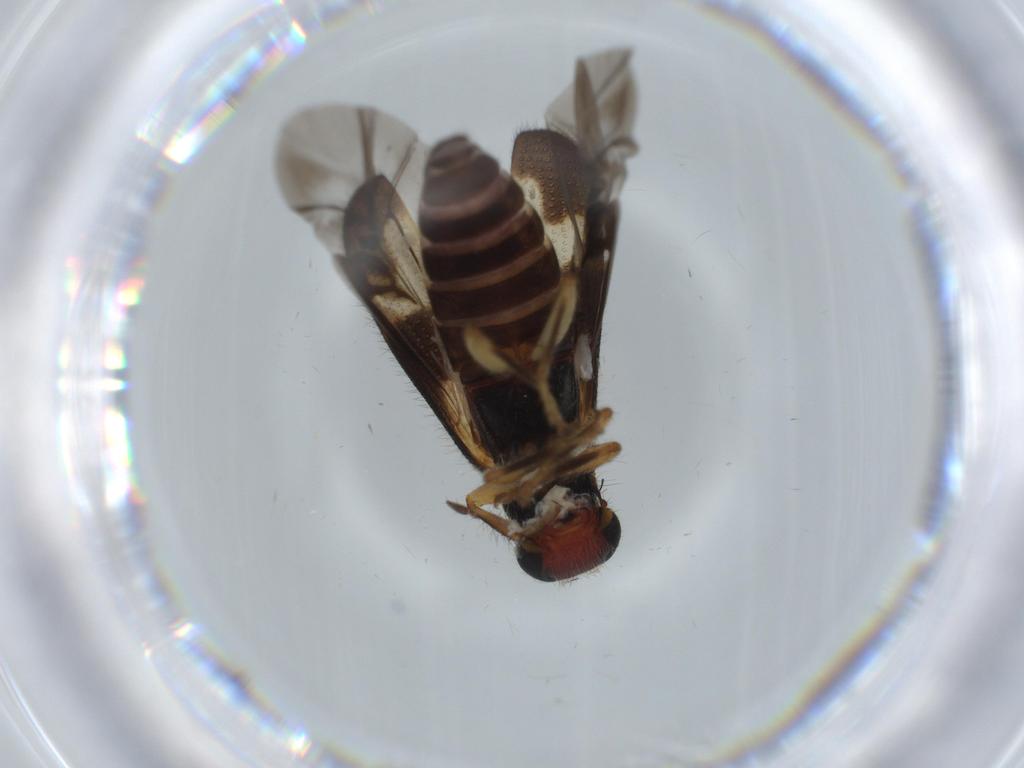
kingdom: Animalia
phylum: Arthropoda
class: Insecta
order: Coleoptera
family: Cleridae
